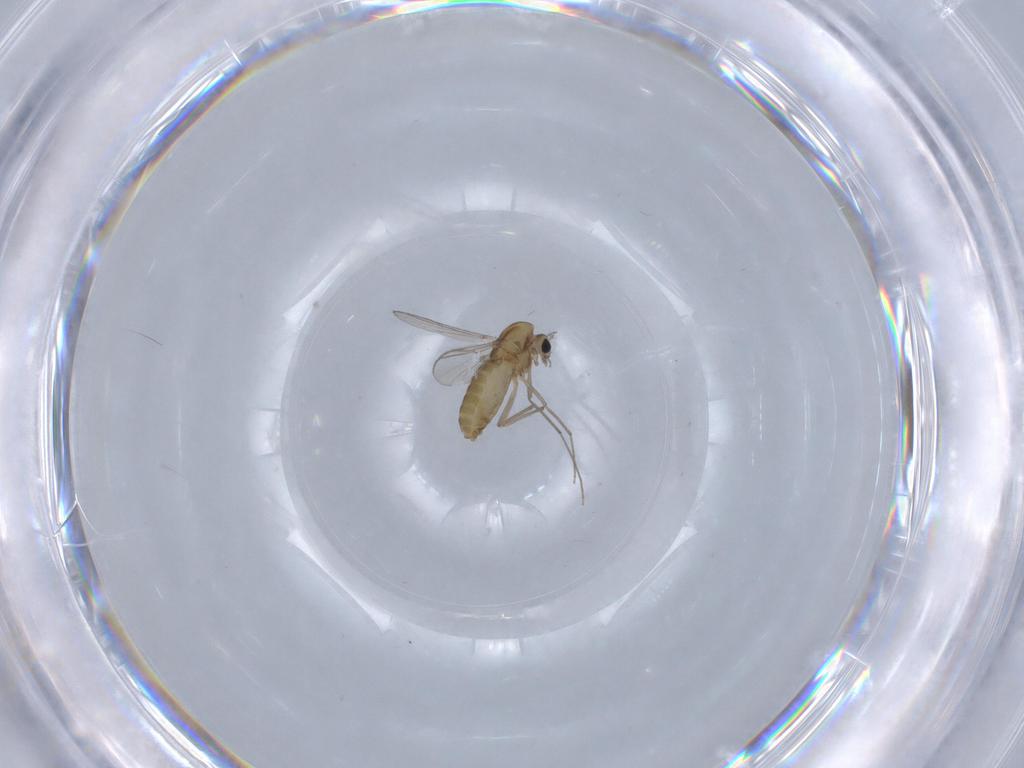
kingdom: Animalia
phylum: Arthropoda
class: Insecta
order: Diptera
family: Chironomidae
